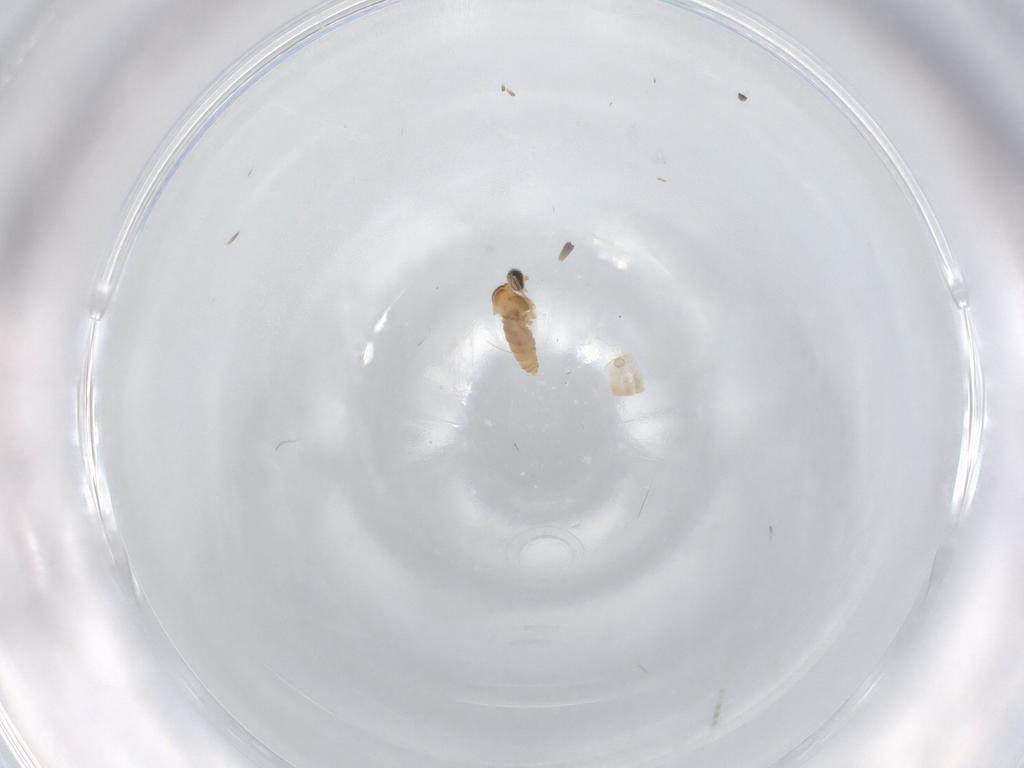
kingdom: Animalia
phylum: Arthropoda
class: Insecta
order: Diptera
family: Cecidomyiidae
